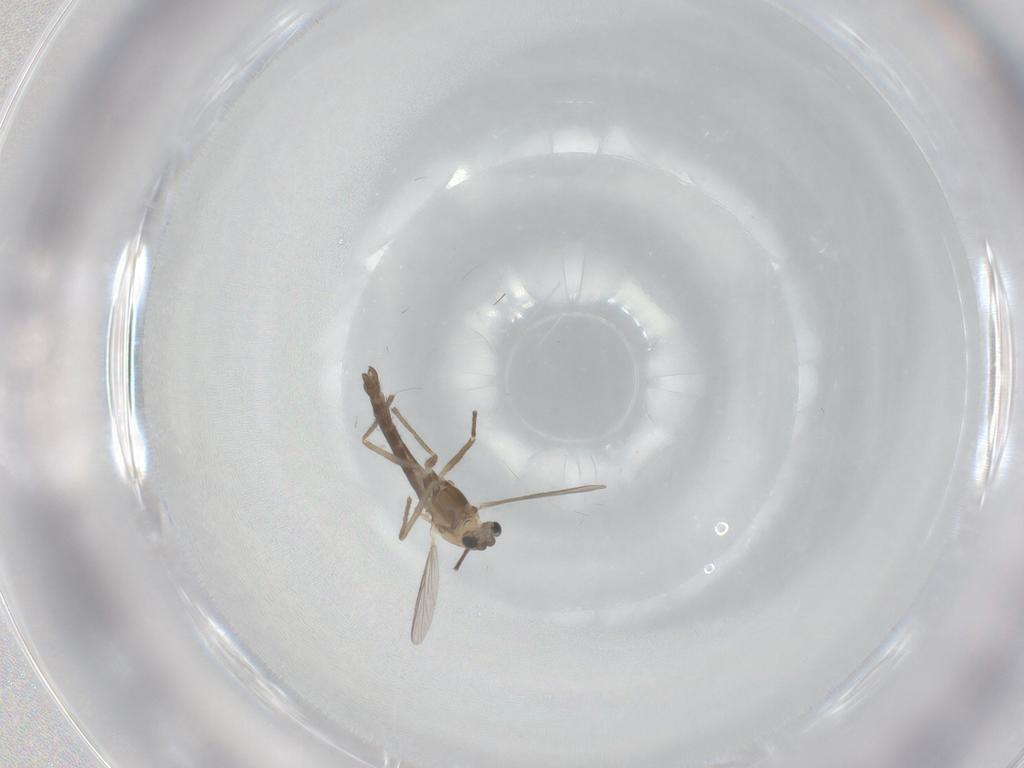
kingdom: Animalia
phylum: Arthropoda
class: Insecta
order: Diptera
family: Chironomidae
